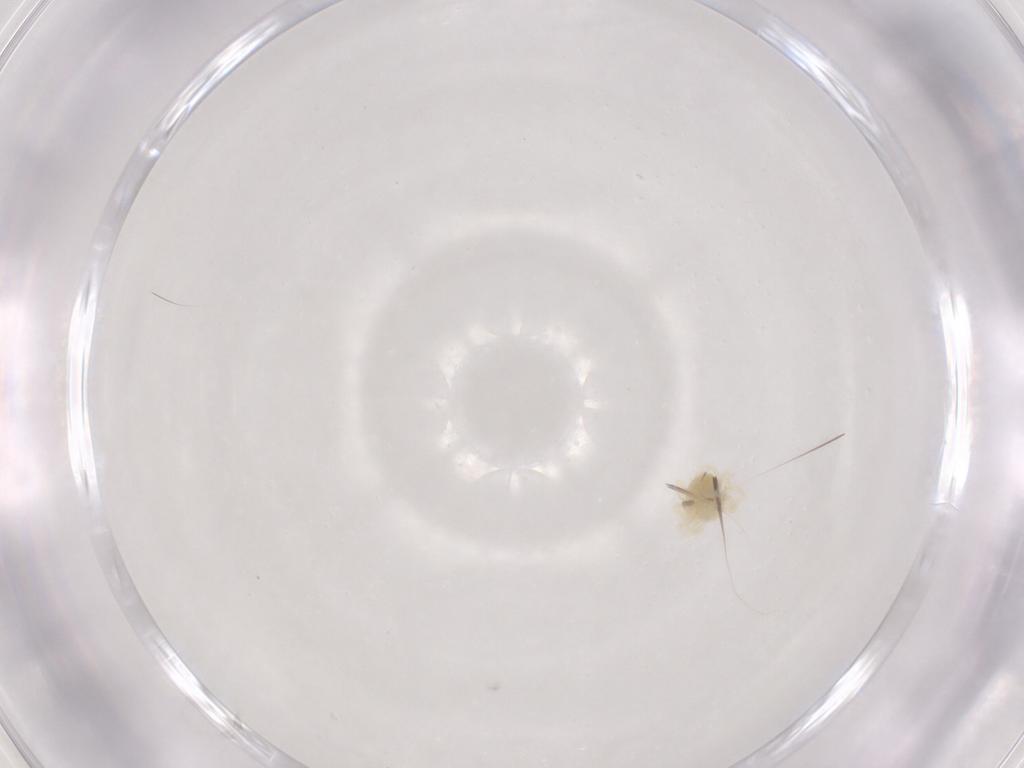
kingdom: Animalia
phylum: Arthropoda
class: Arachnida
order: Trombidiformes
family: Anystidae
